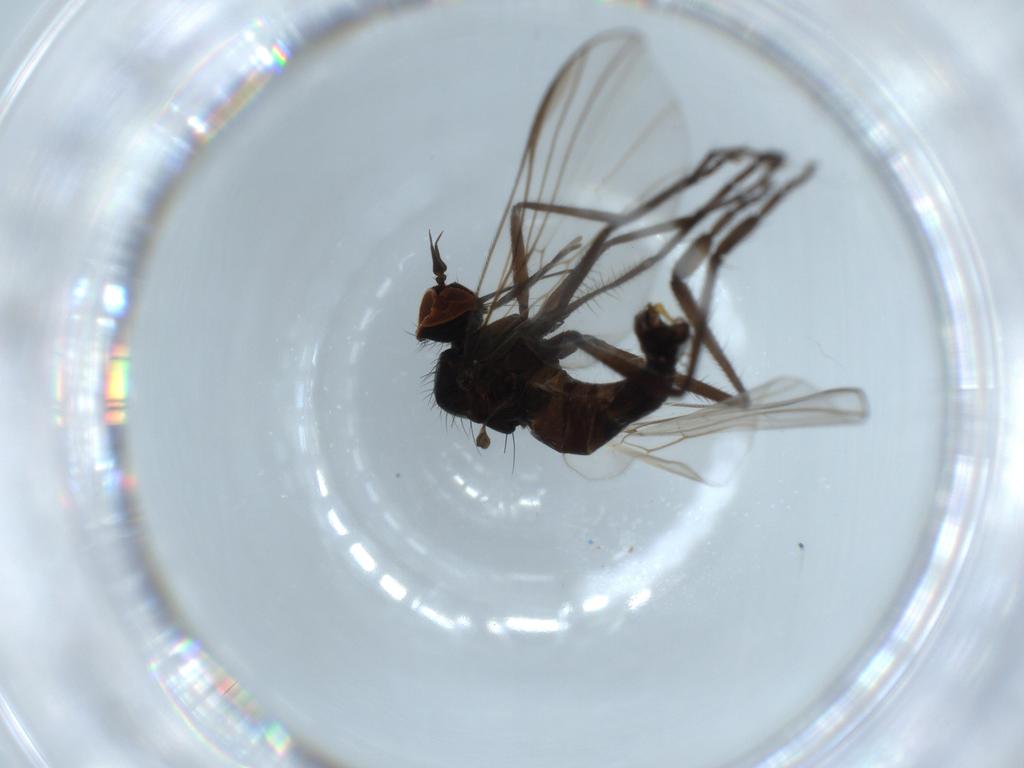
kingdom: Animalia
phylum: Arthropoda
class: Insecta
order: Diptera
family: Empididae
